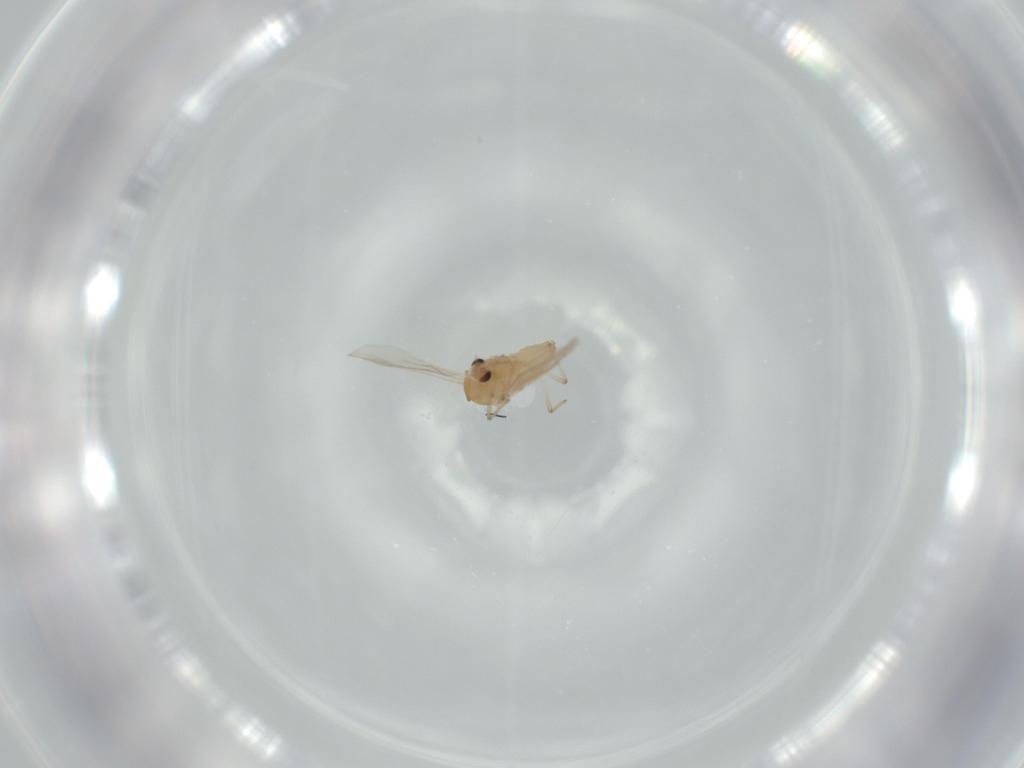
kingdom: Animalia
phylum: Arthropoda
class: Insecta
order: Diptera
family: Chironomidae
